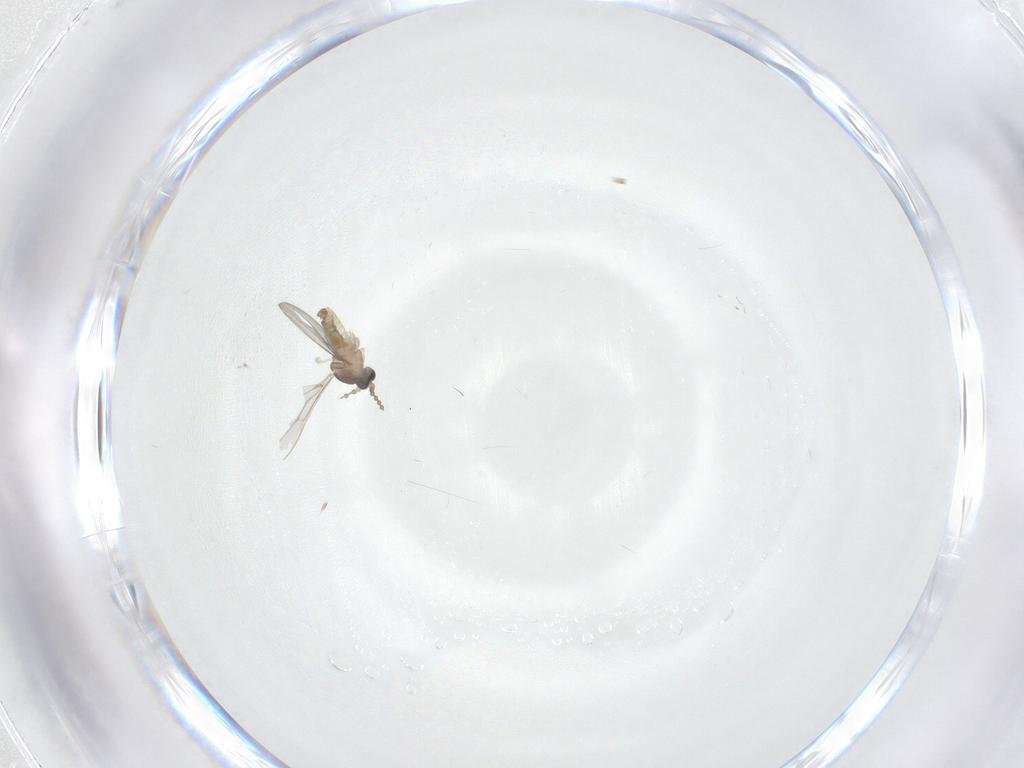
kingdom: Animalia
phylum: Arthropoda
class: Insecta
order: Diptera
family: Cecidomyiidae
